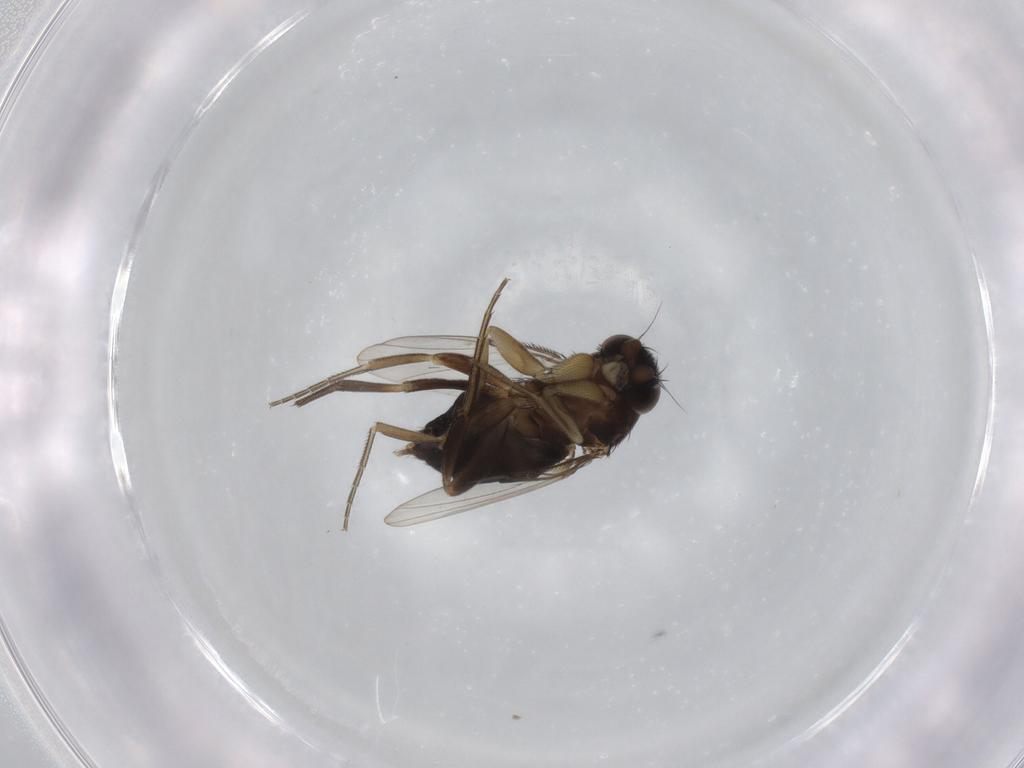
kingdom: Animalia
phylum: Arthropoda
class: Insecta
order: Diptera
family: Phoridae
